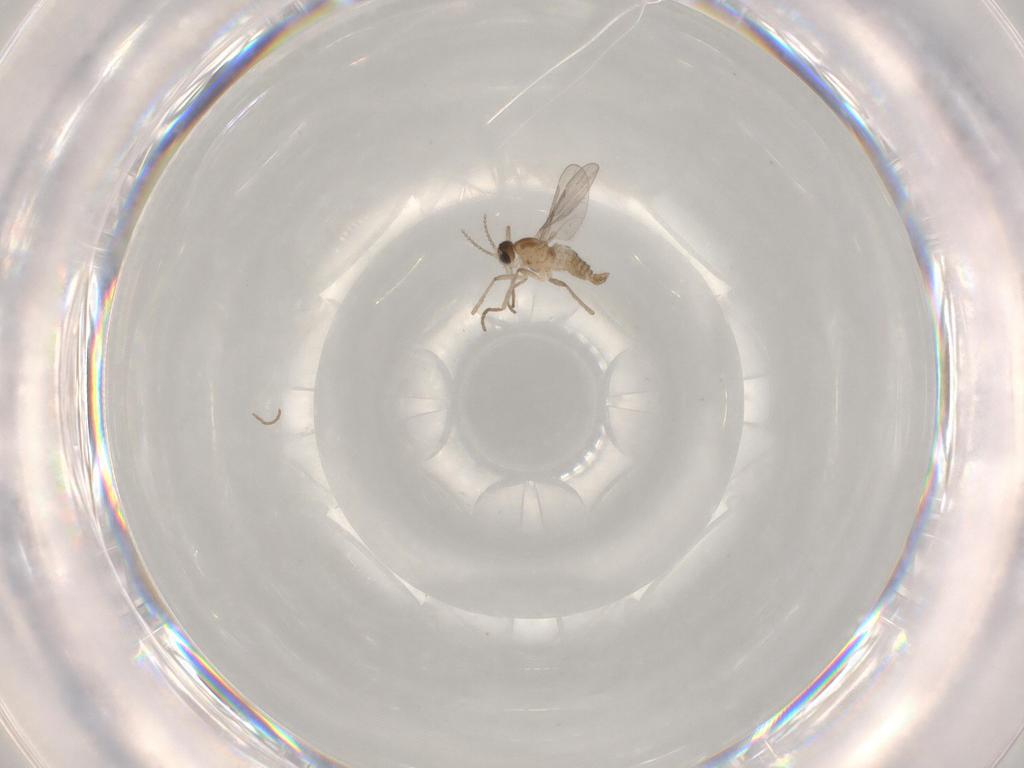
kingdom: Animalia
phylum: Arthropoda
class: Insecta
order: Diptera
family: Cecidomyiidae
